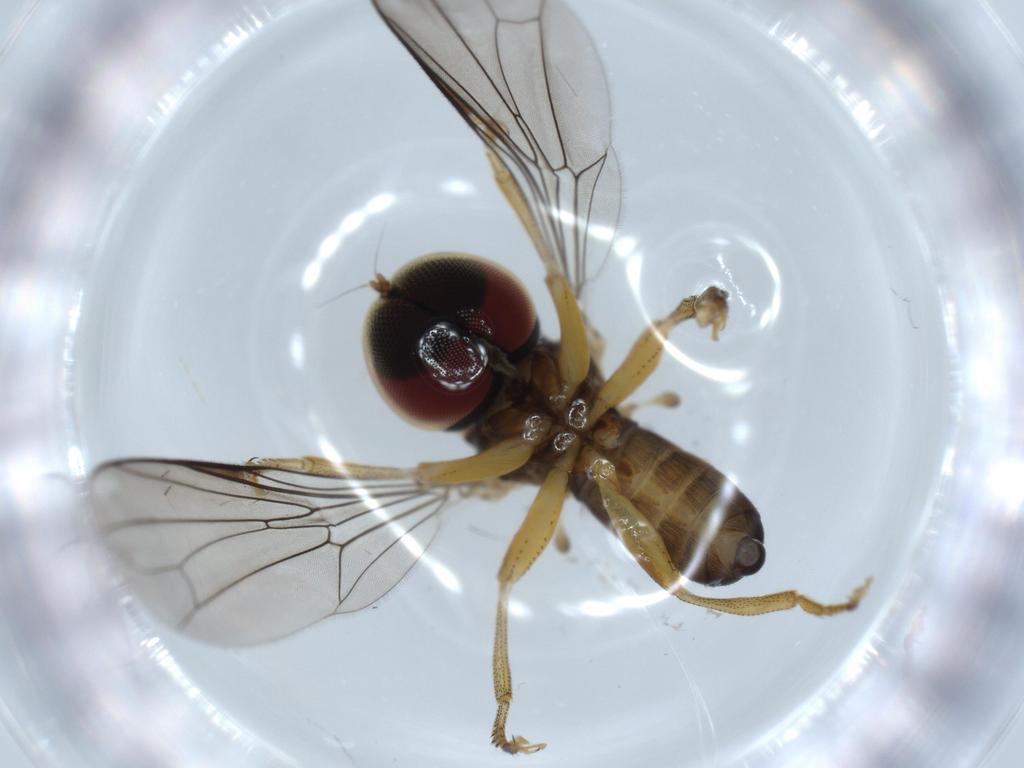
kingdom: Animalia
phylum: Arthropoda
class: Insecta
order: Diptera
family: Pipunculidae
